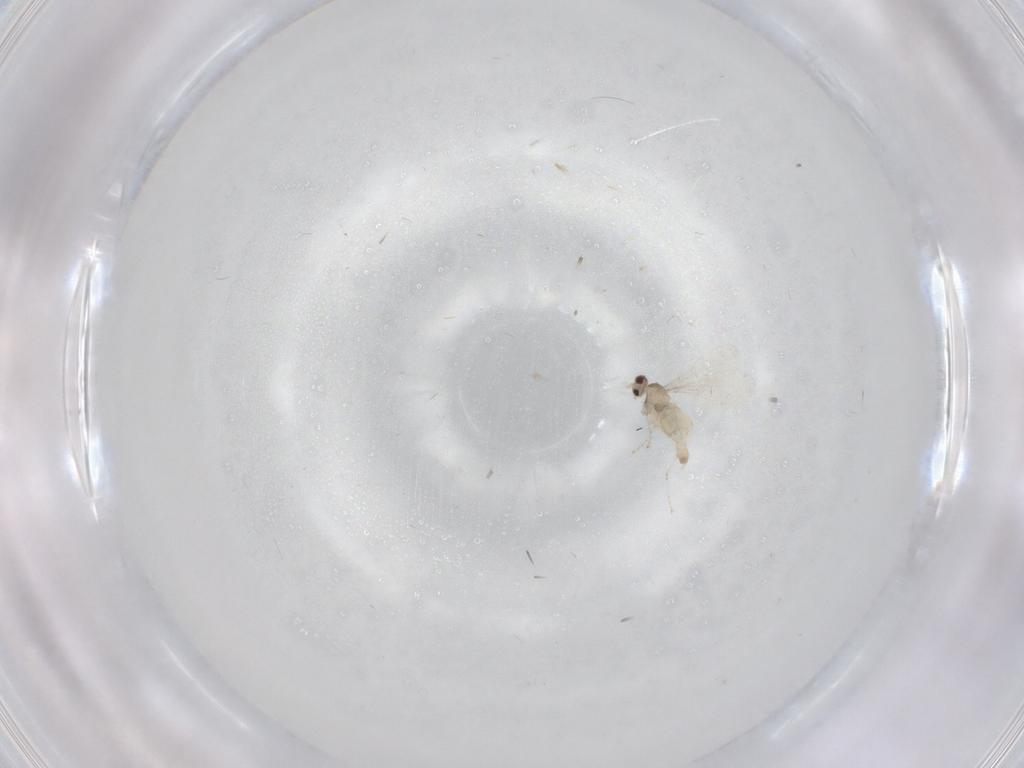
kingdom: Animalia
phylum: Arthropoda
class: Insecta
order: Diptera
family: Cecidomyiidae
